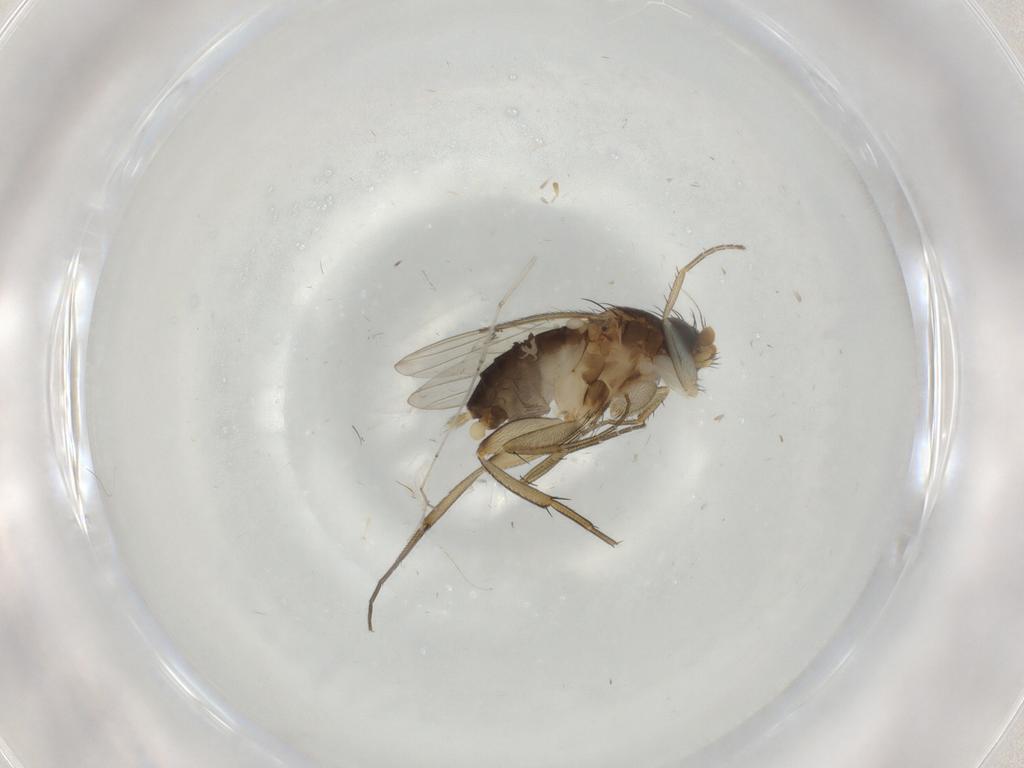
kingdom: Animalia
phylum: Arthropoda
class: Insecta
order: Diptera
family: Phoridae
